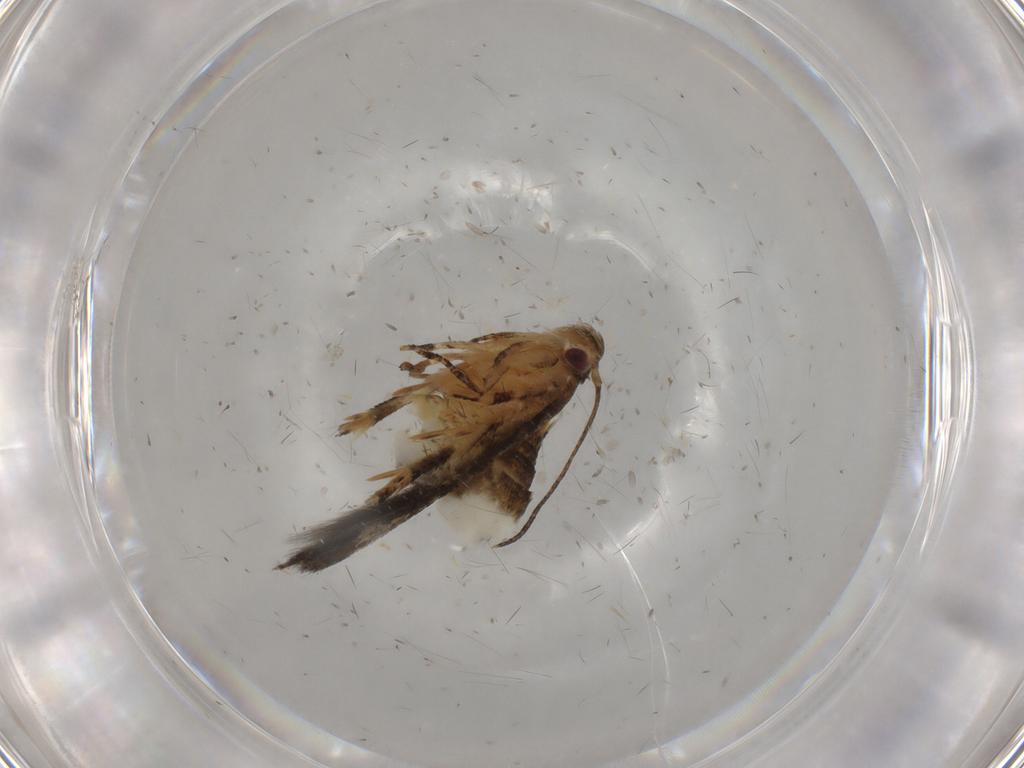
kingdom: Animalia
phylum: Arthropoda
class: Insecta
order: Lepidoptera
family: Momphidae
